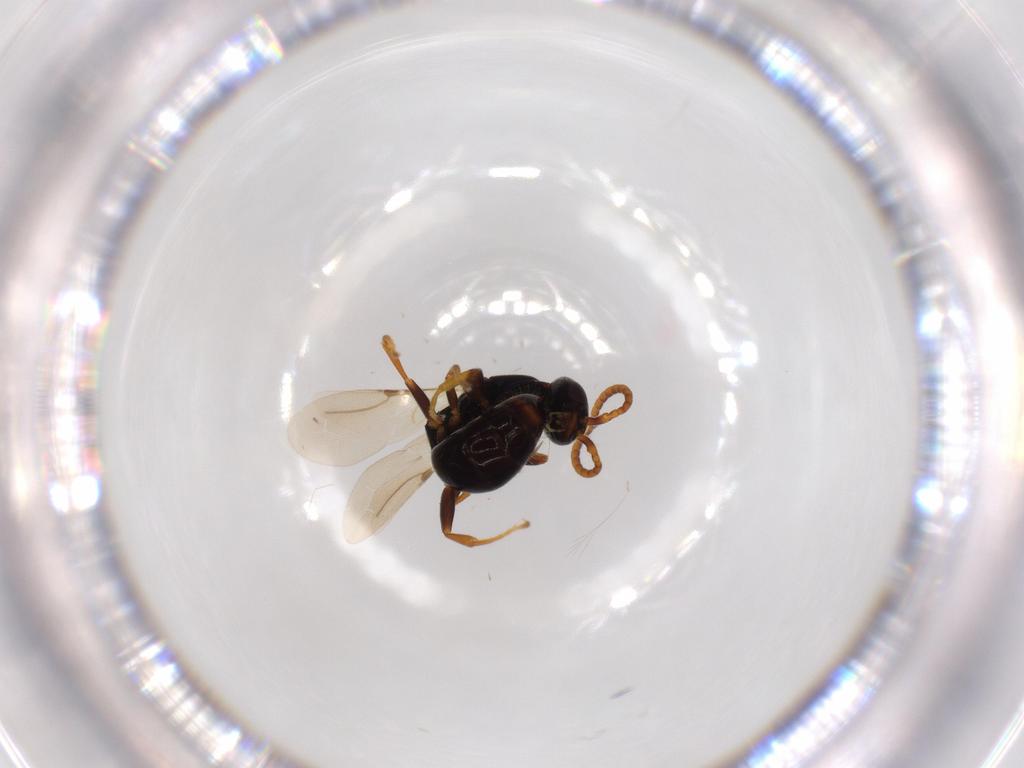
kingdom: Animalia
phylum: Arthropoda
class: Insecta
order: Hymenoptera
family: Bethylidae
